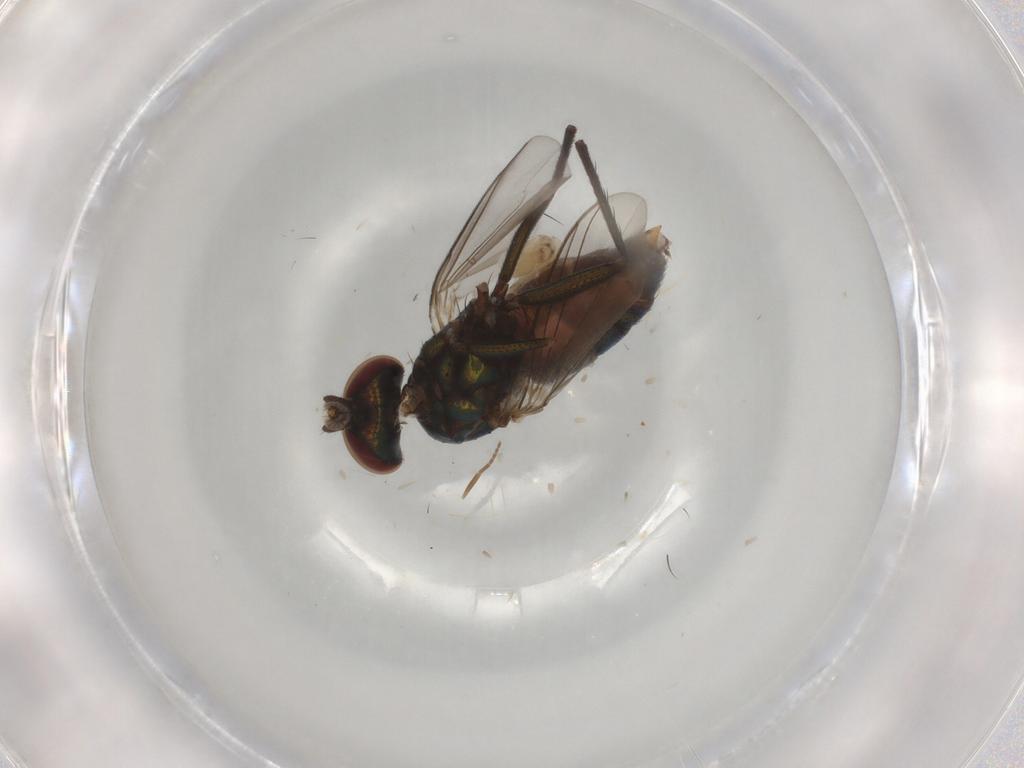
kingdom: Animalia
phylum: Arthropoda
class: Insecta
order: Diptera
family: Dolichopodidae
